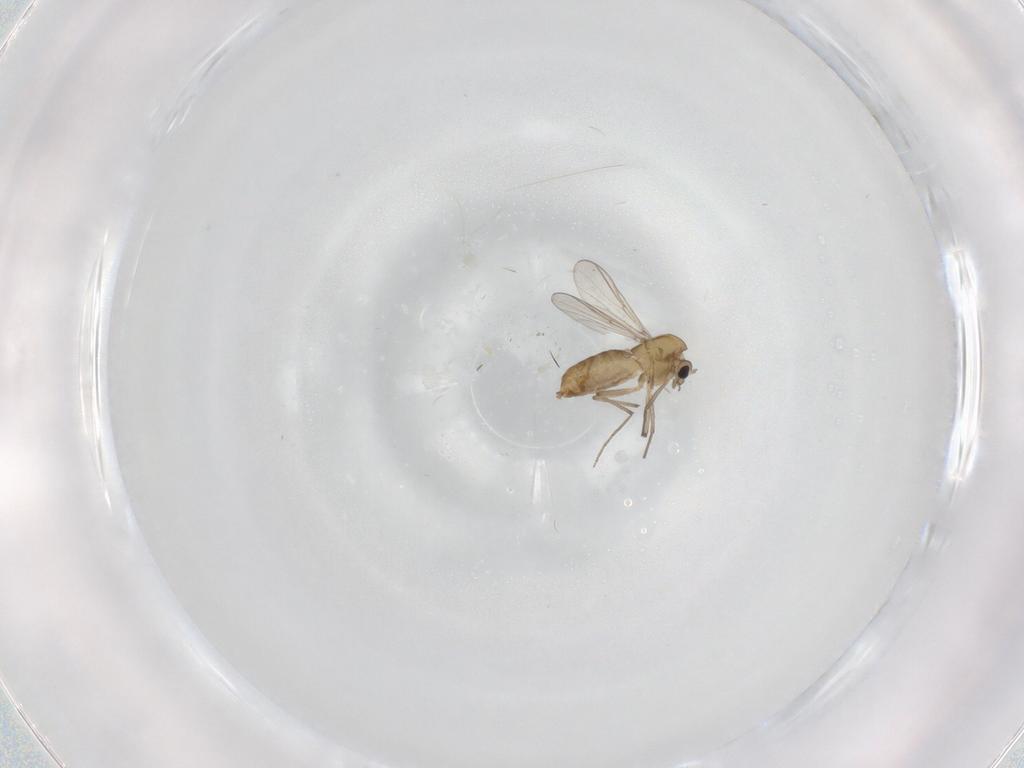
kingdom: Animalia
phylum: Arthropoda
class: Insecta
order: Diptera
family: Chironomidae
